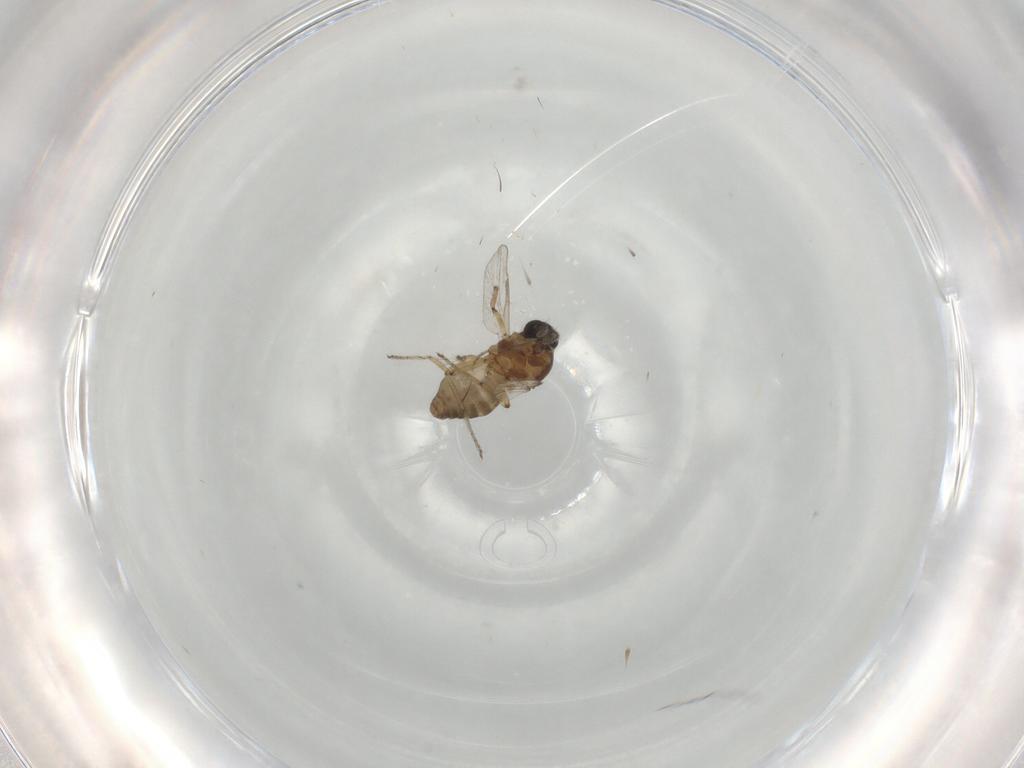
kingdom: Animalia
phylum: Arthropoda
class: Insecta
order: Diptera
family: Ceratopogonidae
